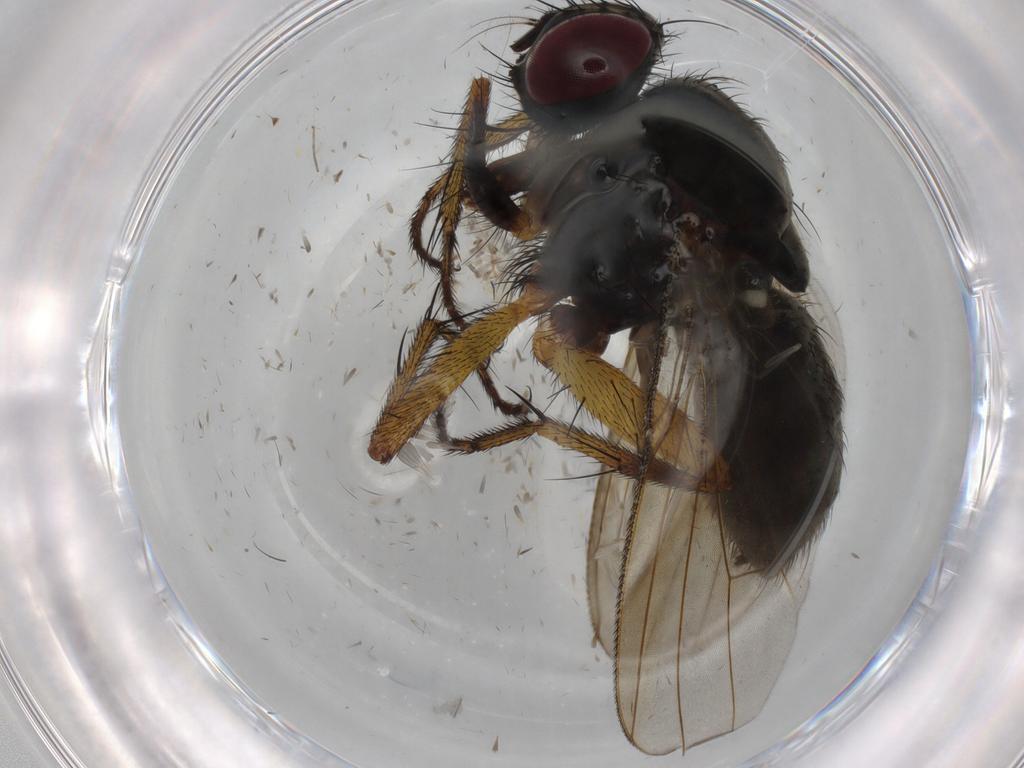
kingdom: Animalia
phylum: Arthropoda
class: Insecta
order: Diptera
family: Muscidae
